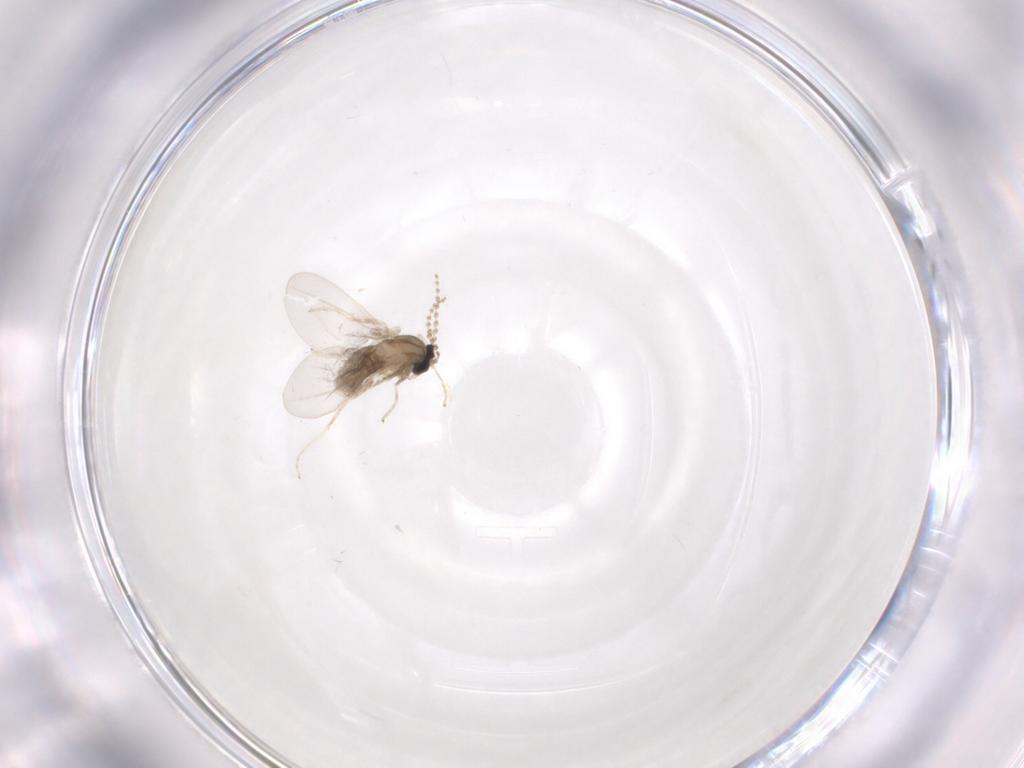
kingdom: Animalia
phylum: Arthropoda
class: Insecta
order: Diptera
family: Cecidomyiidae
